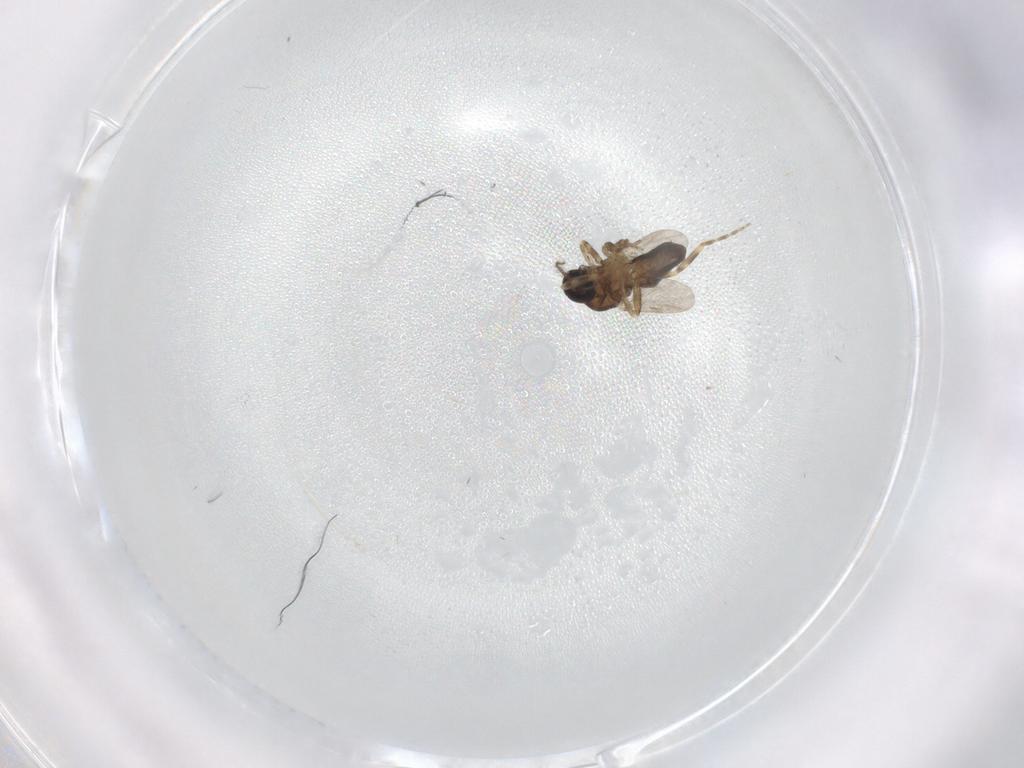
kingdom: Animalia
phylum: Arthropoda
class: Insecta
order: Diptera
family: Ceratopogonidae
